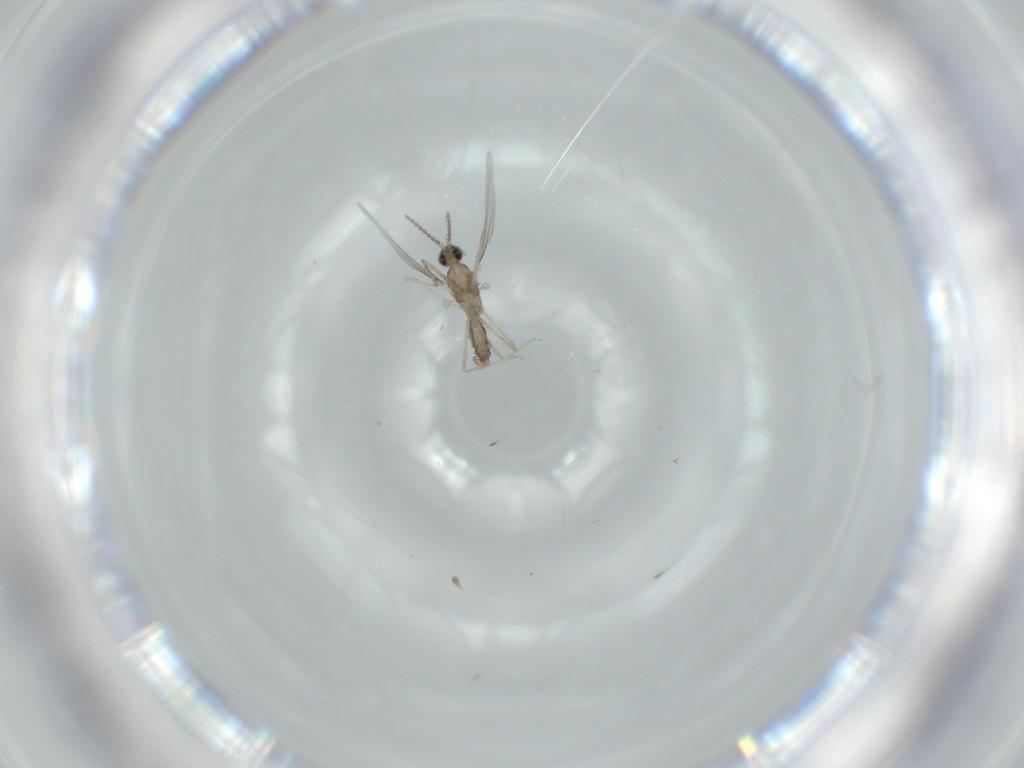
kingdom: Animalia
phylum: Arthropoda
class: Insecta
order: Diptera
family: Cecidomyiidae
